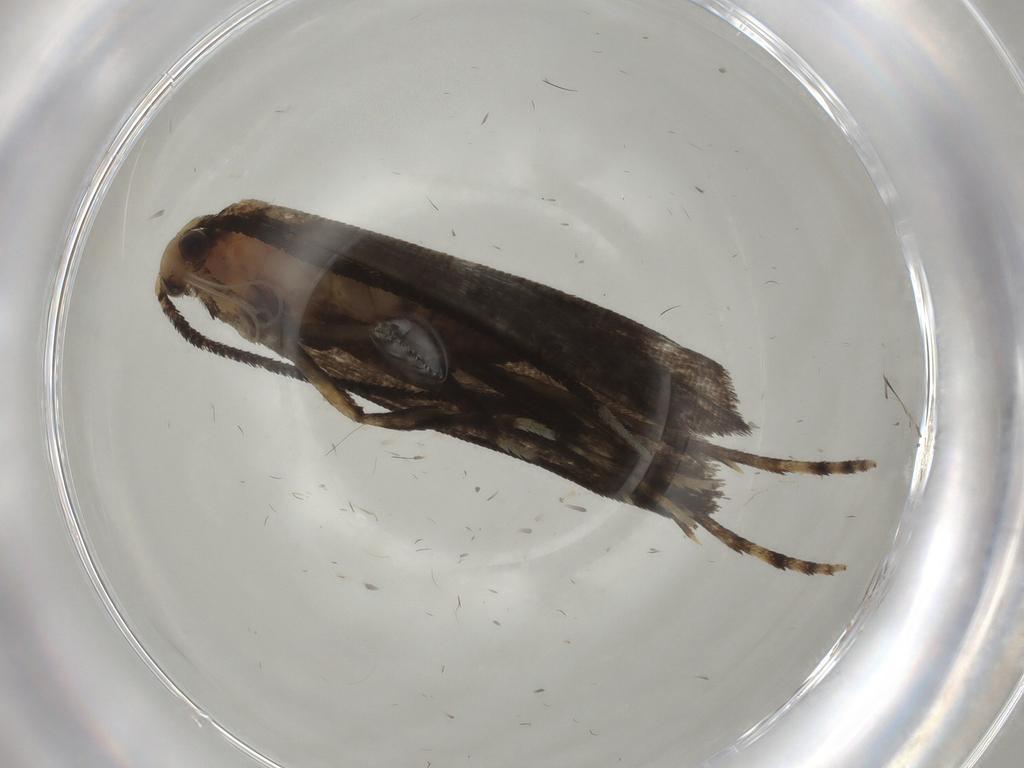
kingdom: Animalia
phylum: Arthropoda
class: Insecta
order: Lepidoptera
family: Choreutidae
